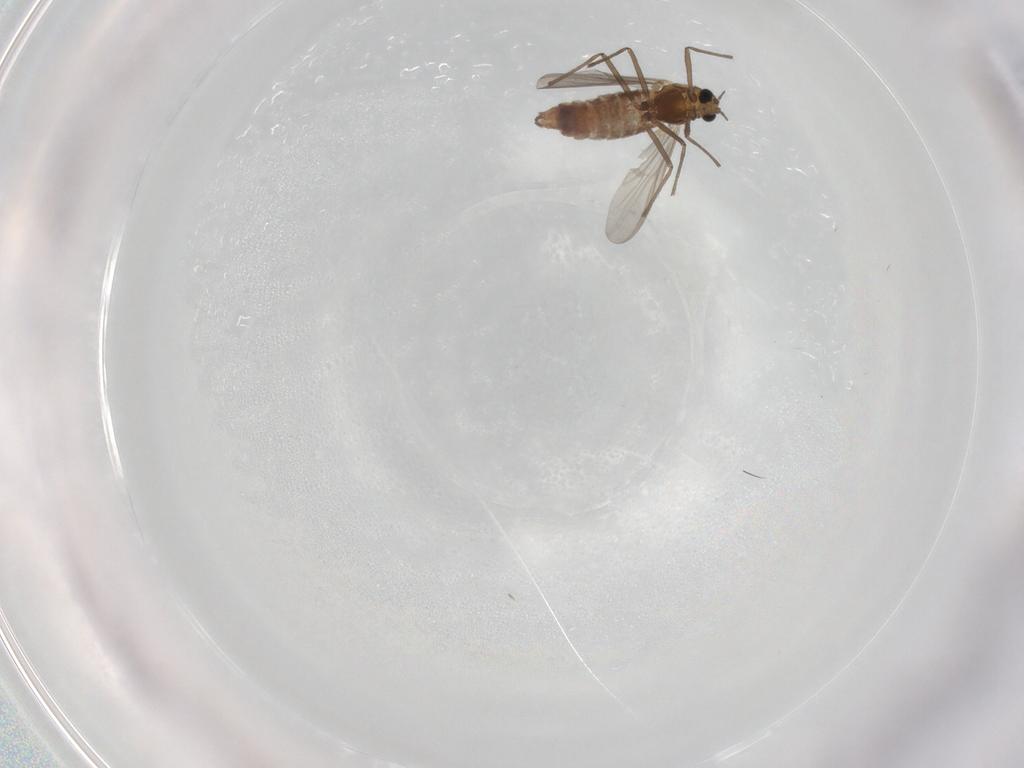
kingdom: Animalia
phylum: Arthropoda
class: Insecta
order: Diptera
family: Chironomidae
